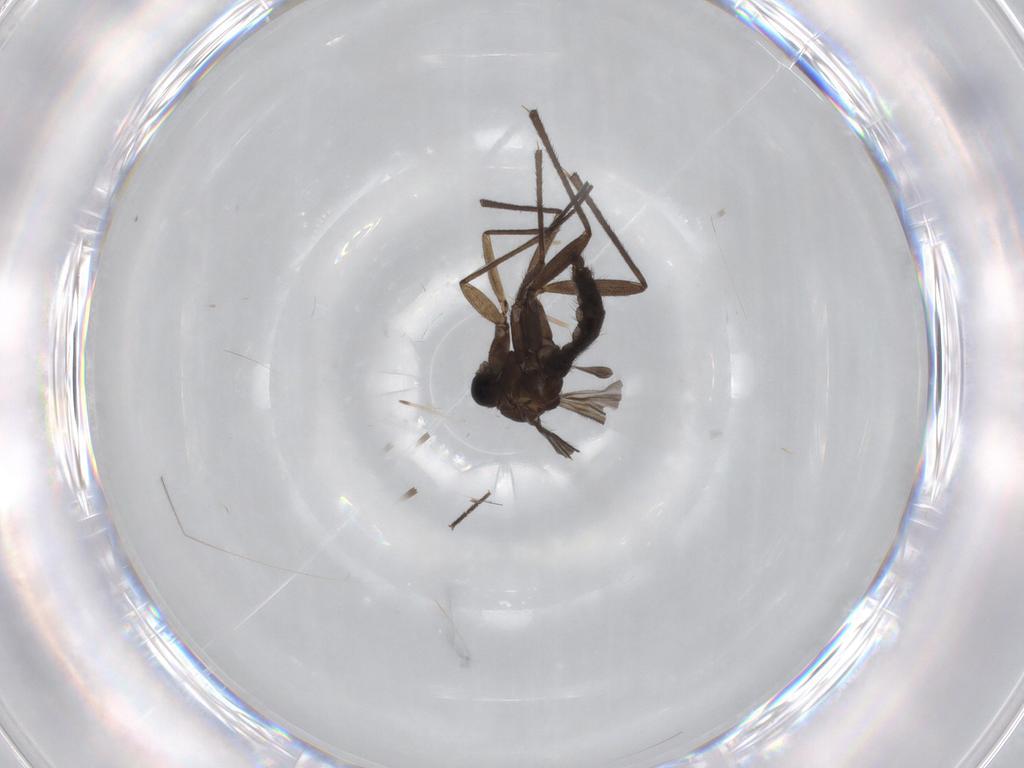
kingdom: Animalia
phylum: Arthropoda
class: Insecta
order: Diptera
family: Sciaridae
